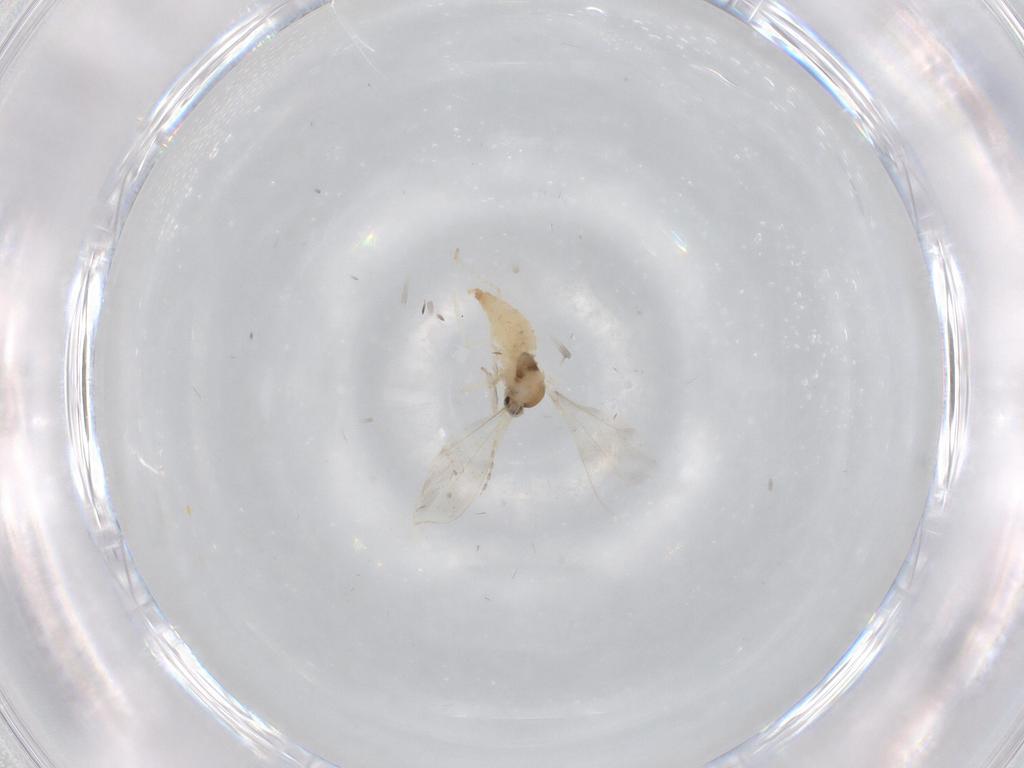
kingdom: Animalia
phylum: Arthropoda
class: Insecta
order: Diptera
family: Cecidomyiidae
